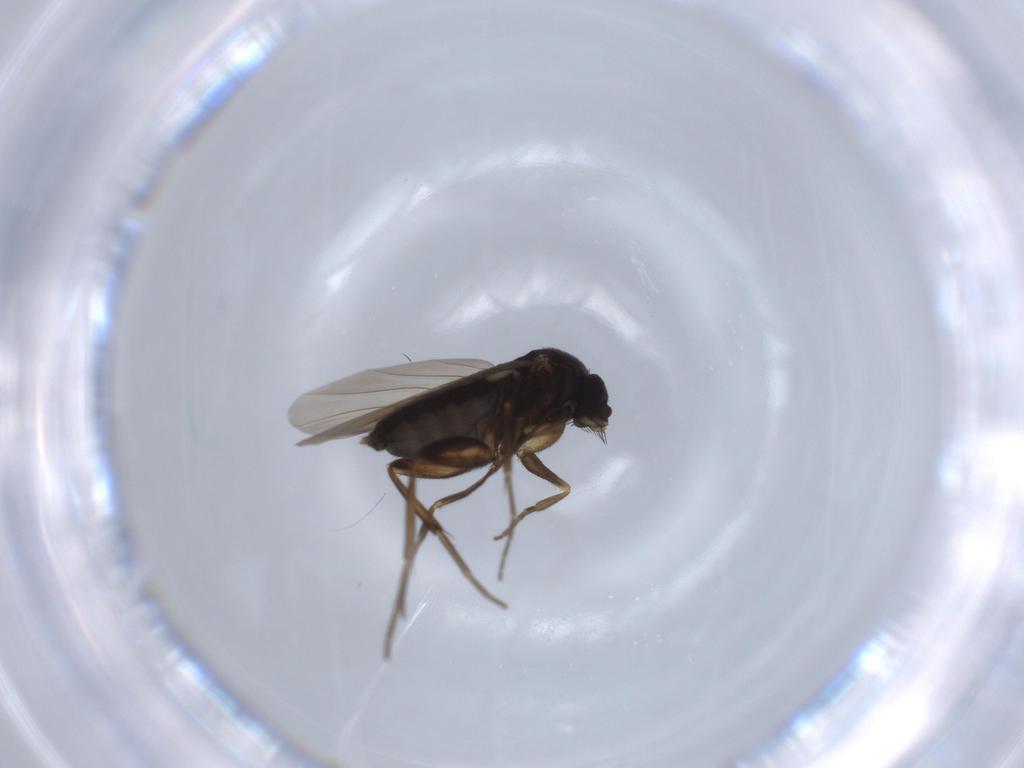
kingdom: Animalia
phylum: Arthropoda
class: Insecta
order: Diptera
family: Phoridae
